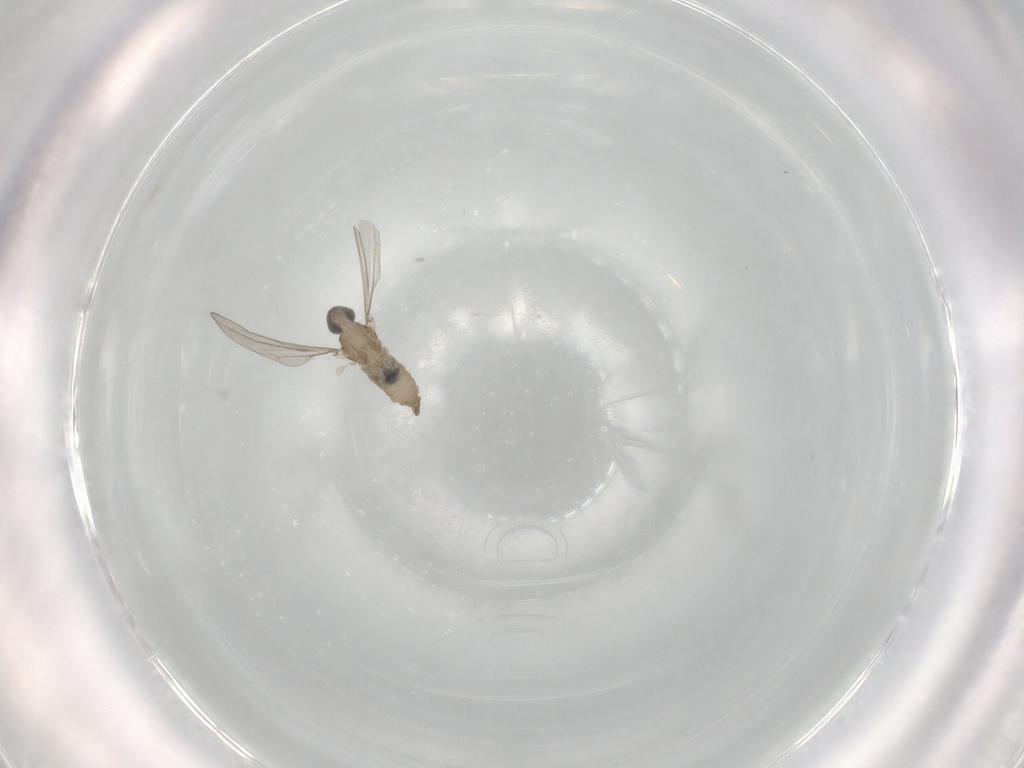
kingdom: Animalia
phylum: Arthropoda
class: Insecta
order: Diptera
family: Cecidomyiidae
